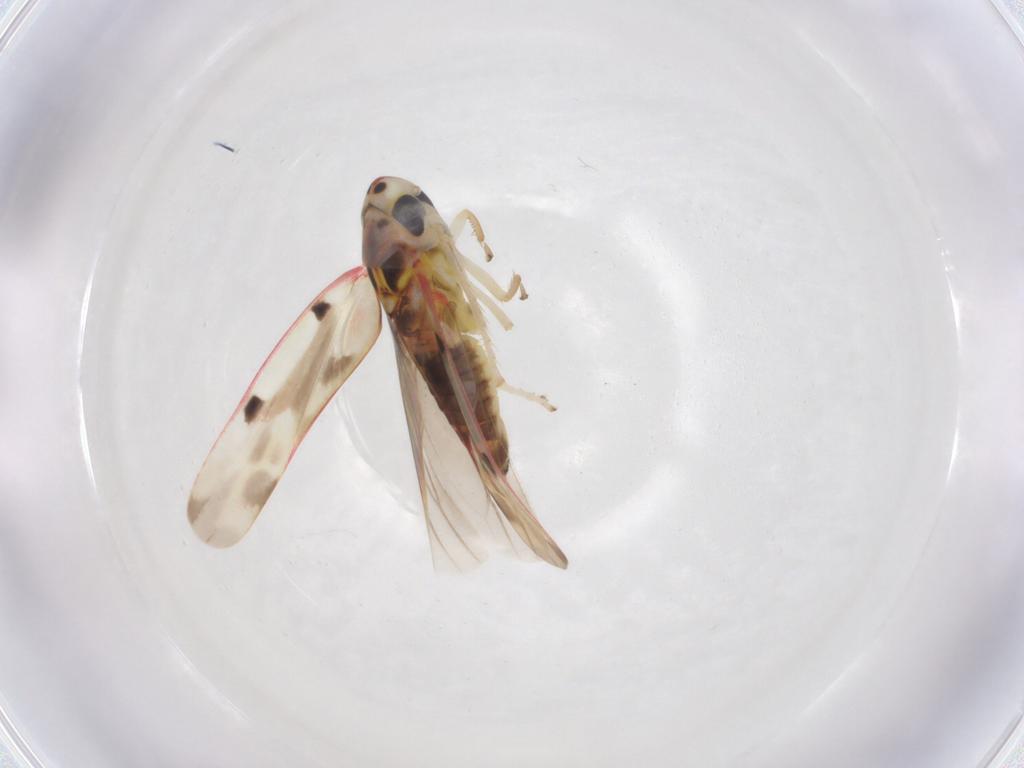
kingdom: Animalia
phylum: Arthropoda
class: Insecta
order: Hemiptera
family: Cicadellidae
